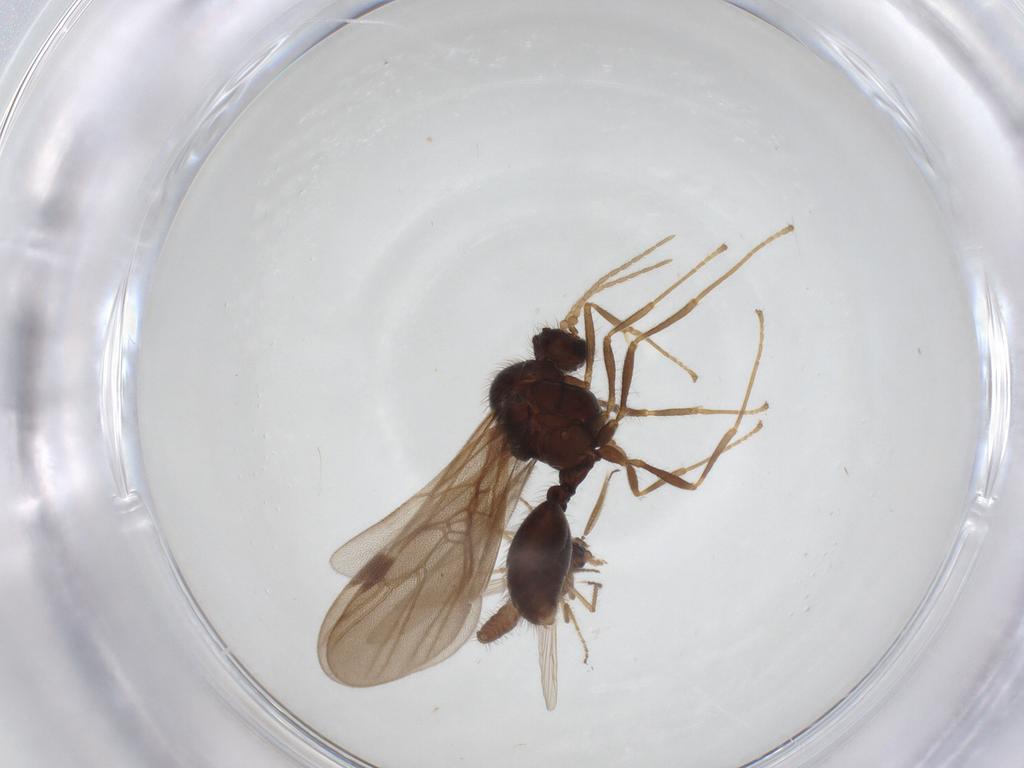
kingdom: Animalia
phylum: Arthropoda
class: Insecta
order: Diptera
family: Ceratopogonidae
